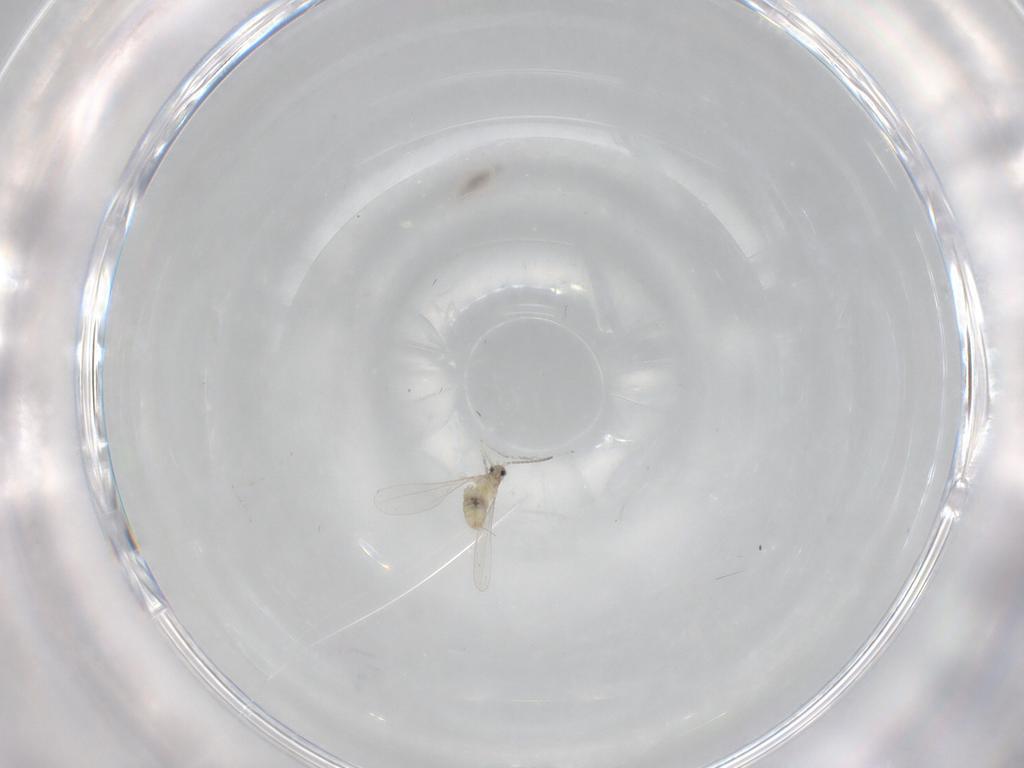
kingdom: Animalia
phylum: Arthropoda
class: Insecta
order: Diptera
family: Cecidomyiidae
